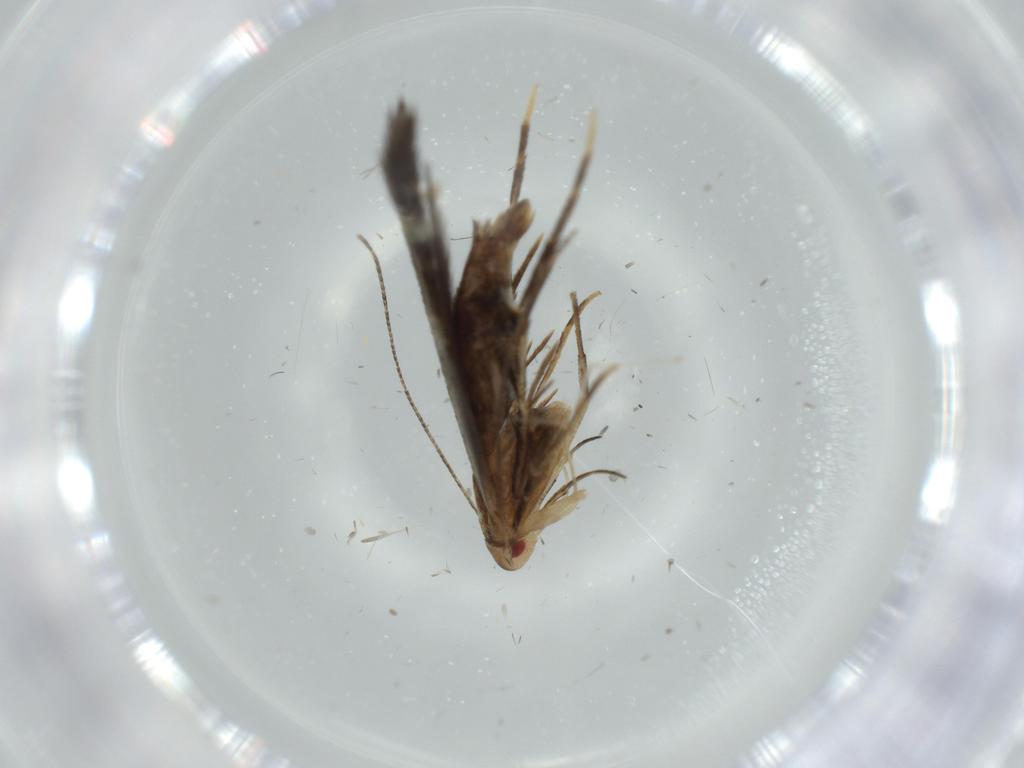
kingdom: Animalia
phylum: Arthropoda
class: Insecta
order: Lepidoptera
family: Cosmopterigidae
